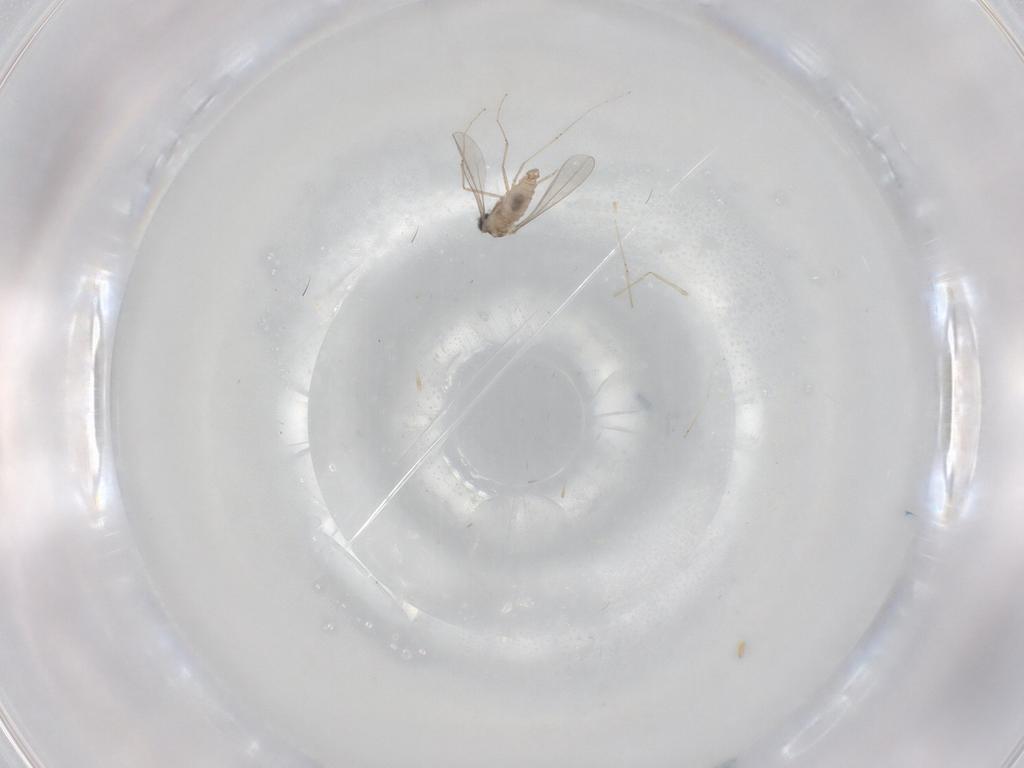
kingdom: Animalia
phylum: Arthropoda
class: Insecta
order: Diptera
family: Cecidomyiidae
